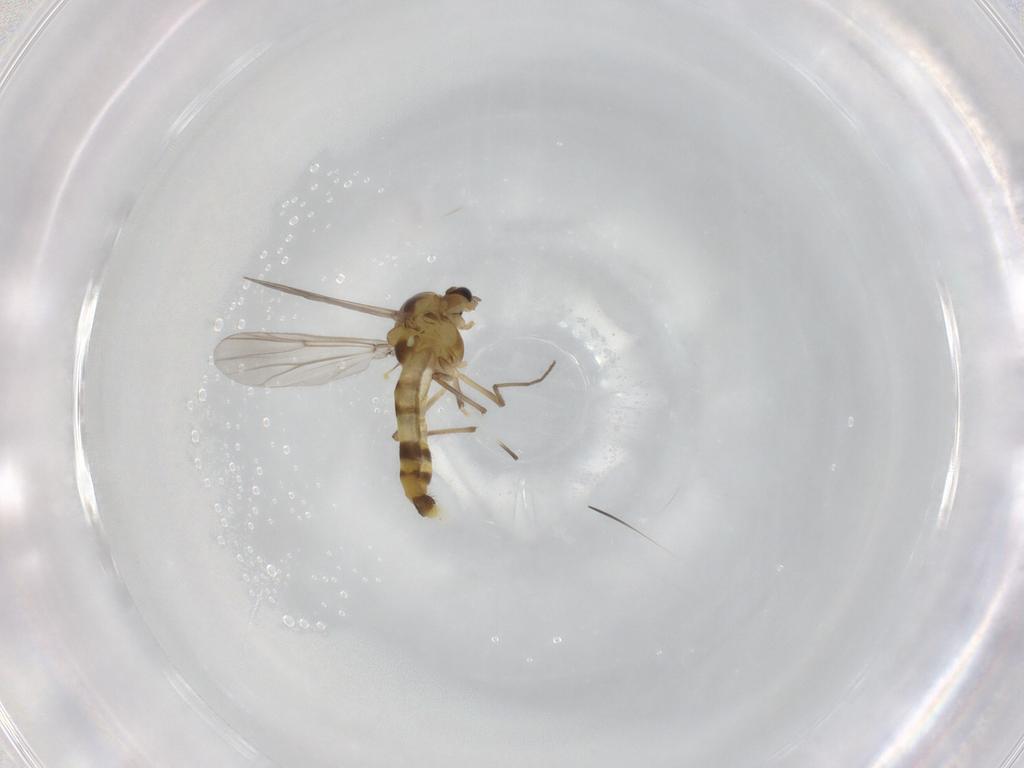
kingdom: Animalia
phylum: Arthropoda
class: Insecta
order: Diptera
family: Chironomidae
